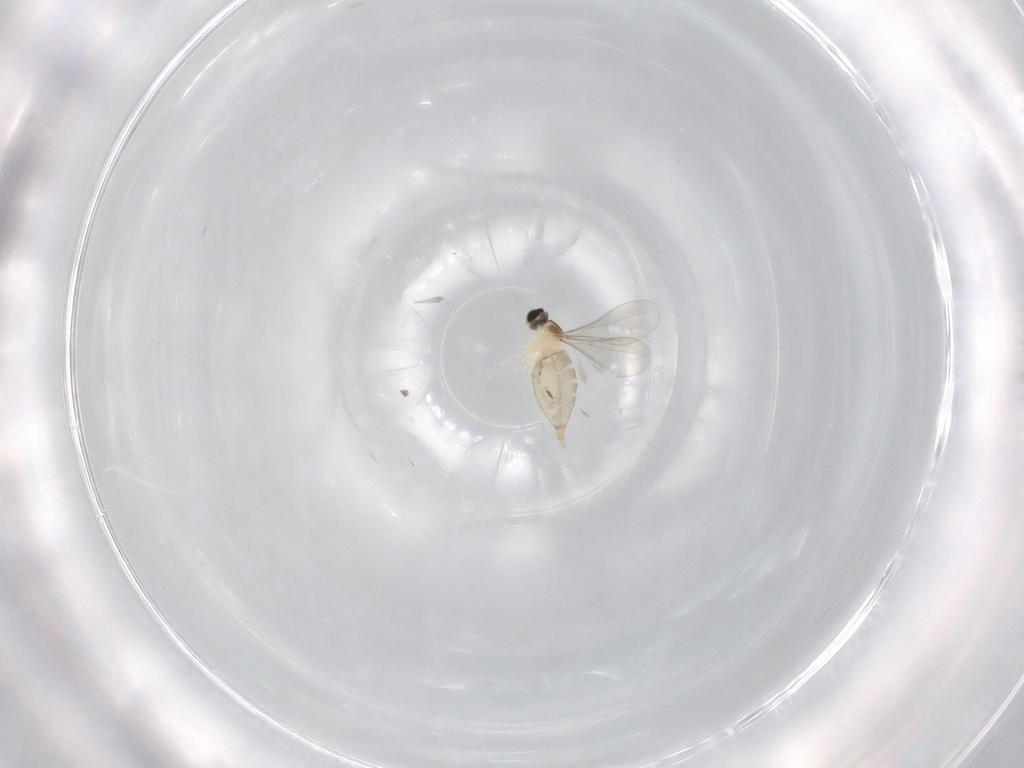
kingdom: Animalia
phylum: Arthropoda
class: Insecta
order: Diptera
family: Cecidomyiidae
